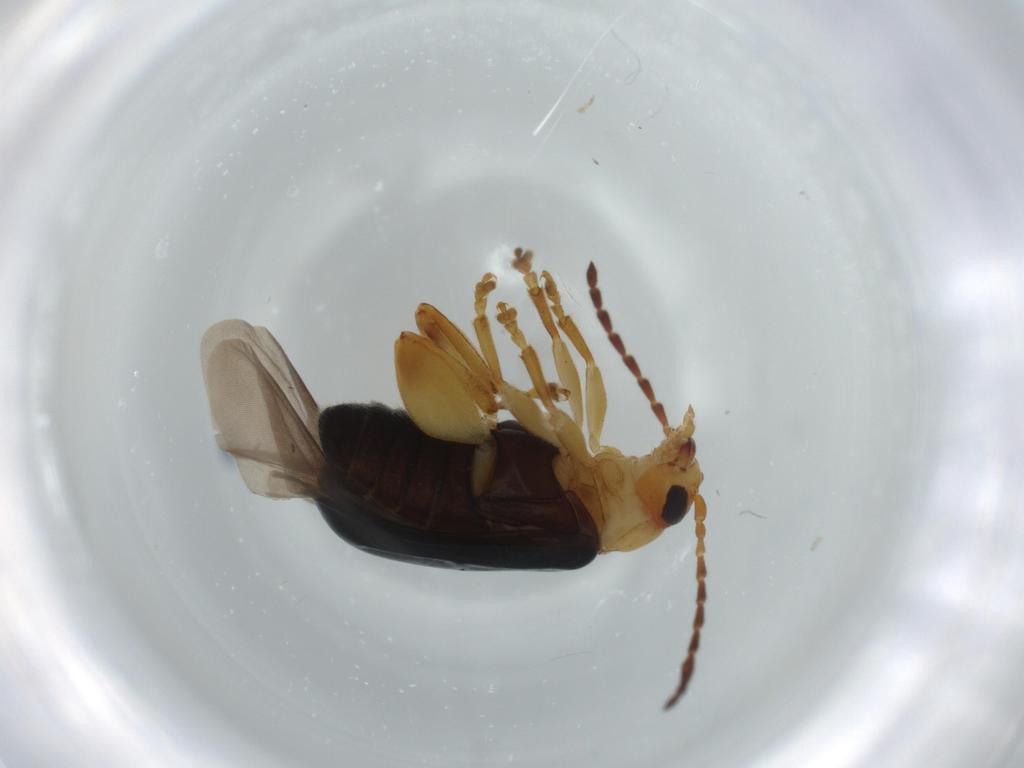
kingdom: Animalia
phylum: Arthropoda
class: Insecta
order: Coleoptera
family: Chrysomelidae
